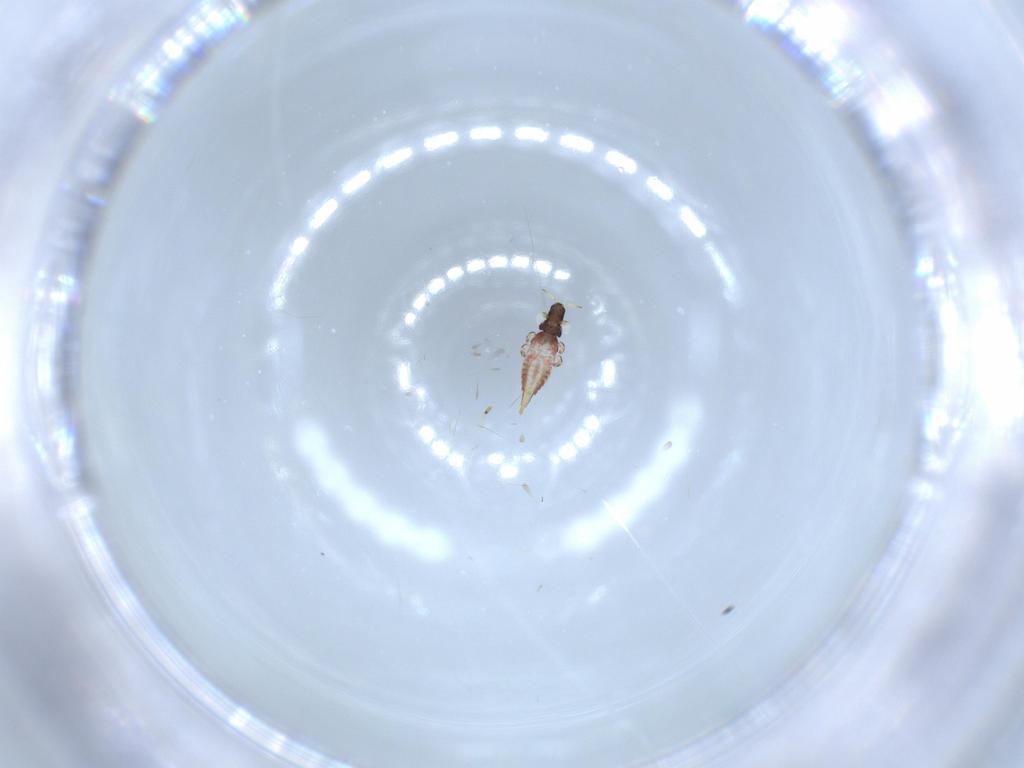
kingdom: Animalia
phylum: Arthropoda
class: Insecta
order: Thysanoptera
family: Phlaeothripidae
